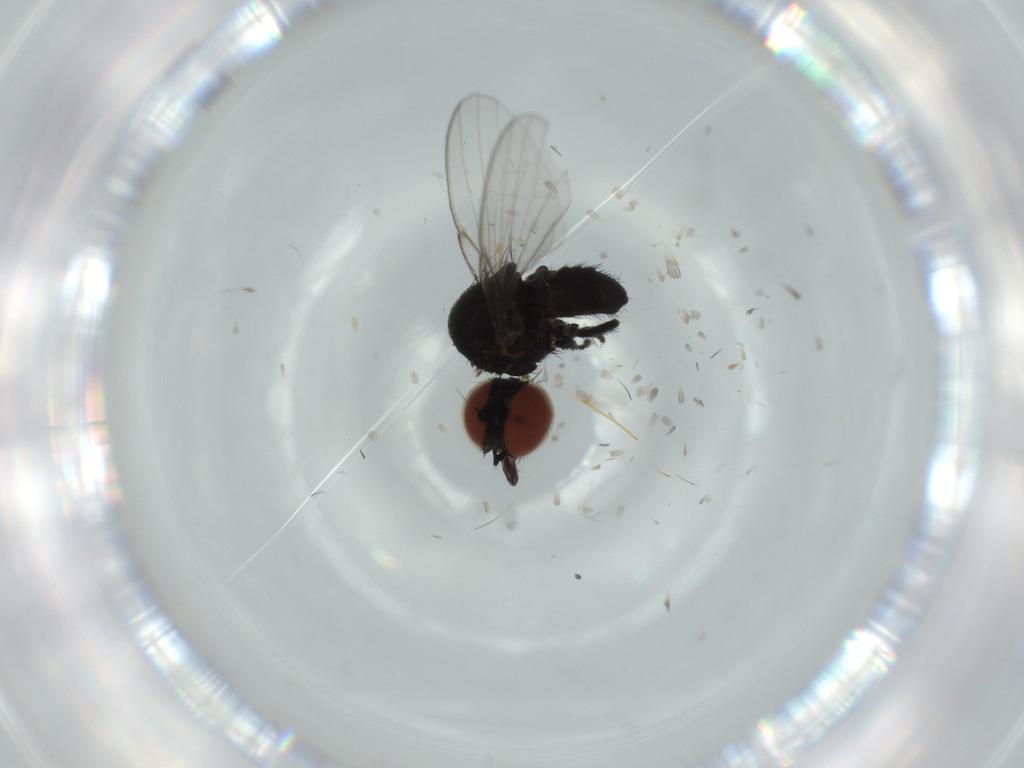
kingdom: Animalia
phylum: Arthropoda
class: Insecta
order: Diptera
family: Milichiidae
